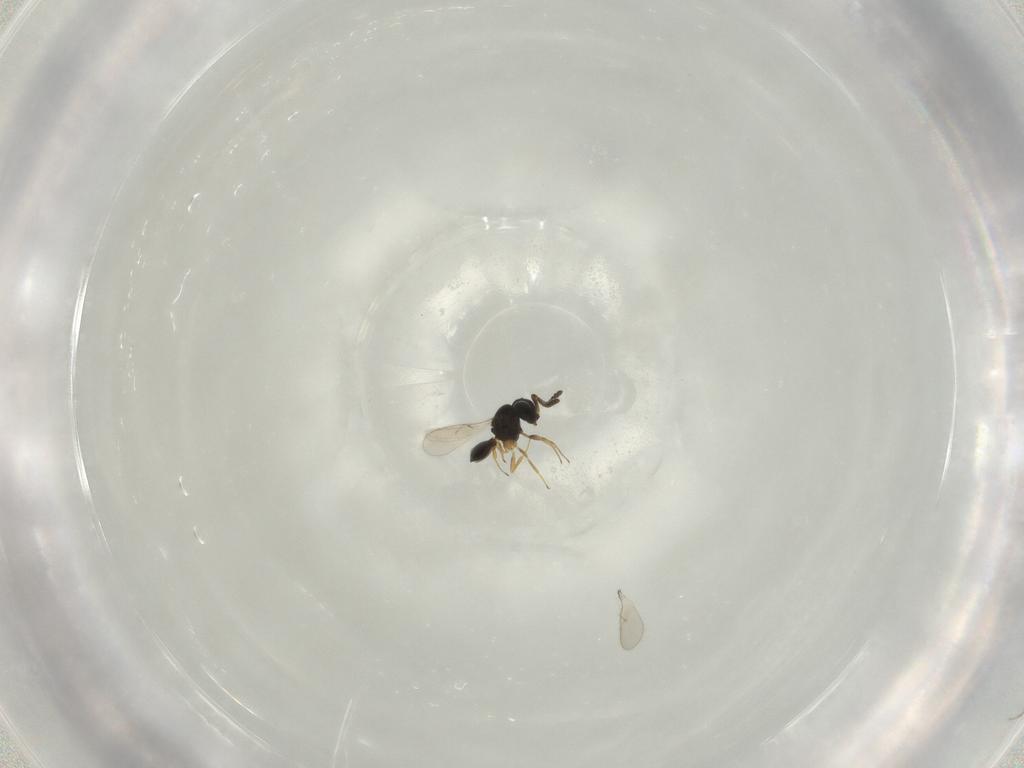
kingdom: Animalia
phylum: Arthropoda
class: Insecta
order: Hymenoptera
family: Scelionidae
